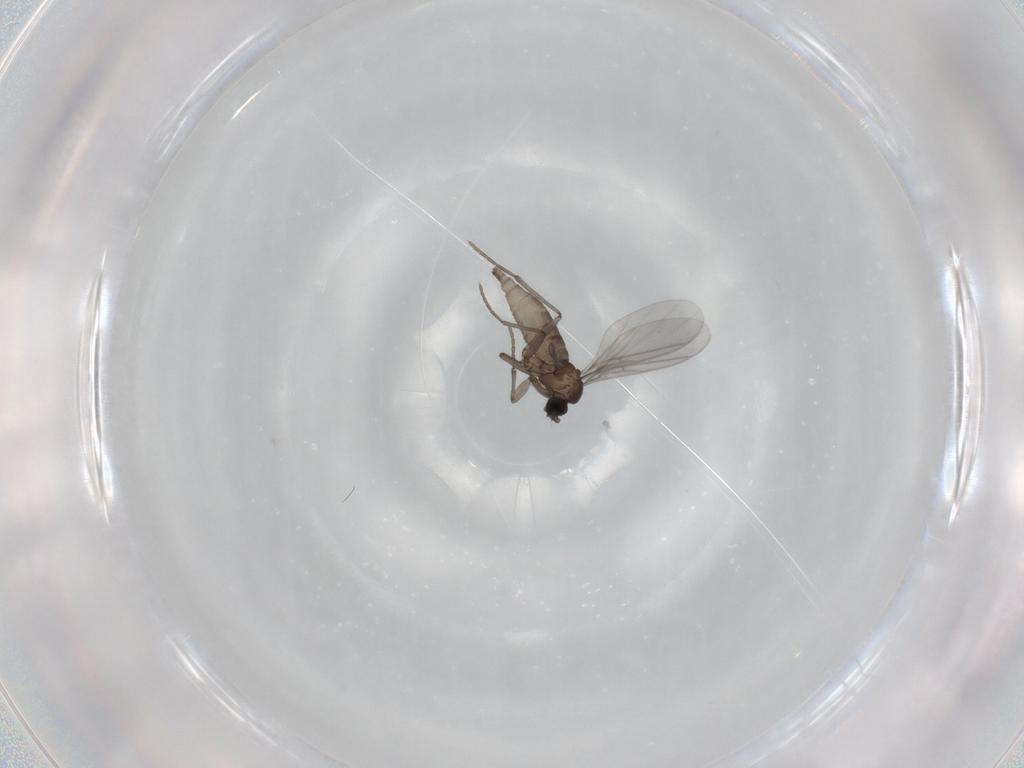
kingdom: Animalia
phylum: Arthropoda
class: Insecta
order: Diptera
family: Sciaridae
